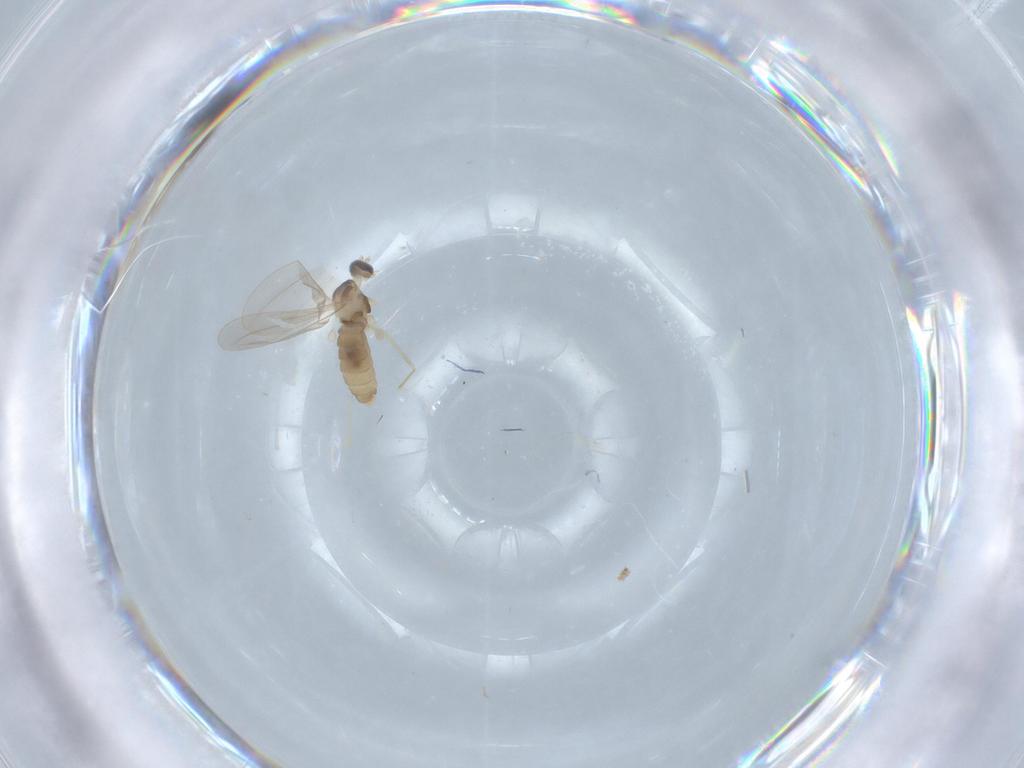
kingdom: Animalia
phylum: Arthropoda
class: Insecta
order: Diptera
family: Cecidomyiidae
